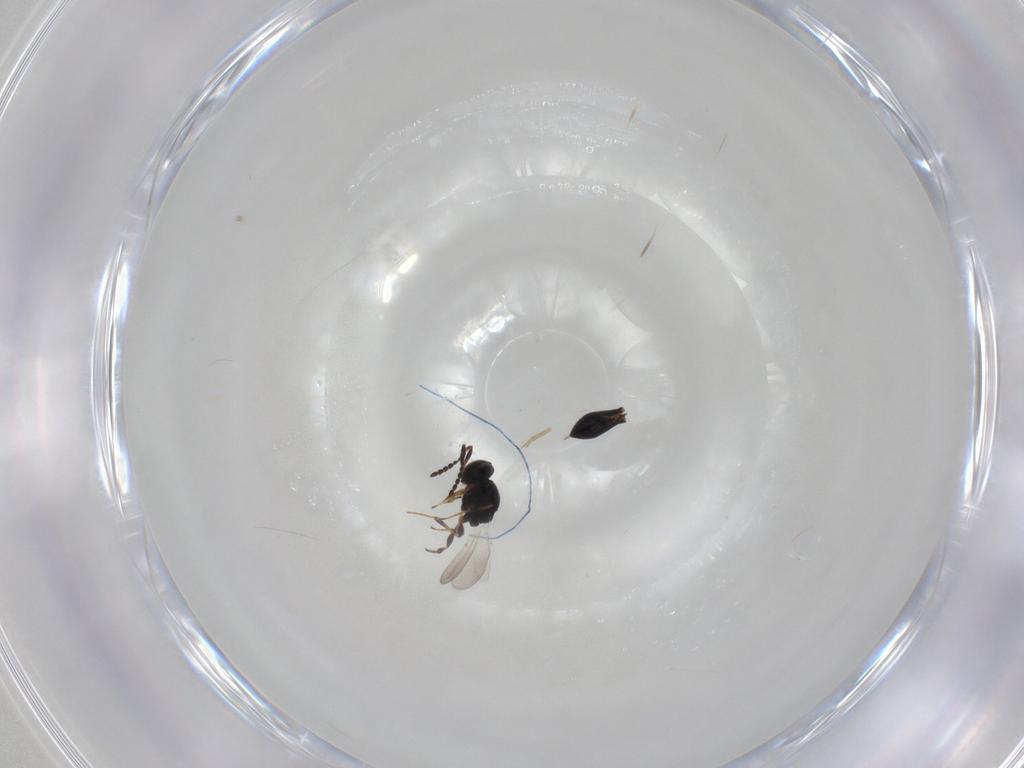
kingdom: Animalia
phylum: Arthropoda
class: Insecta
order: Hymenoptera
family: Platygastridae
